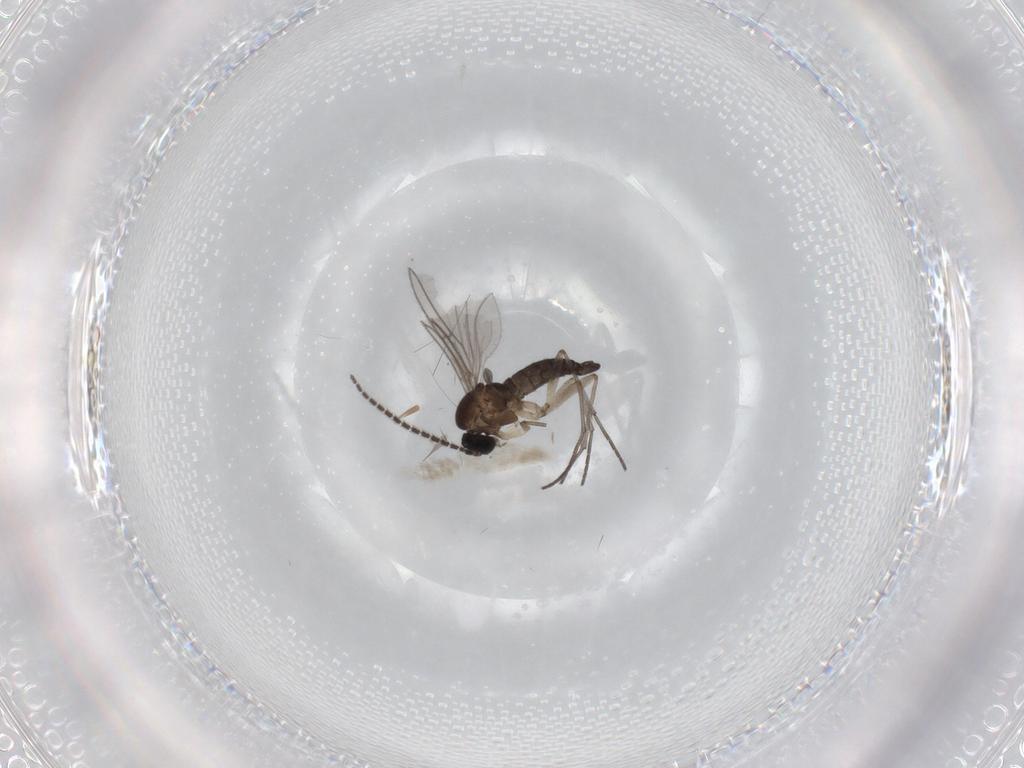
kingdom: Animalia
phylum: Arthropoda
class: Insecta
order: Diptera
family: Sciaridae
